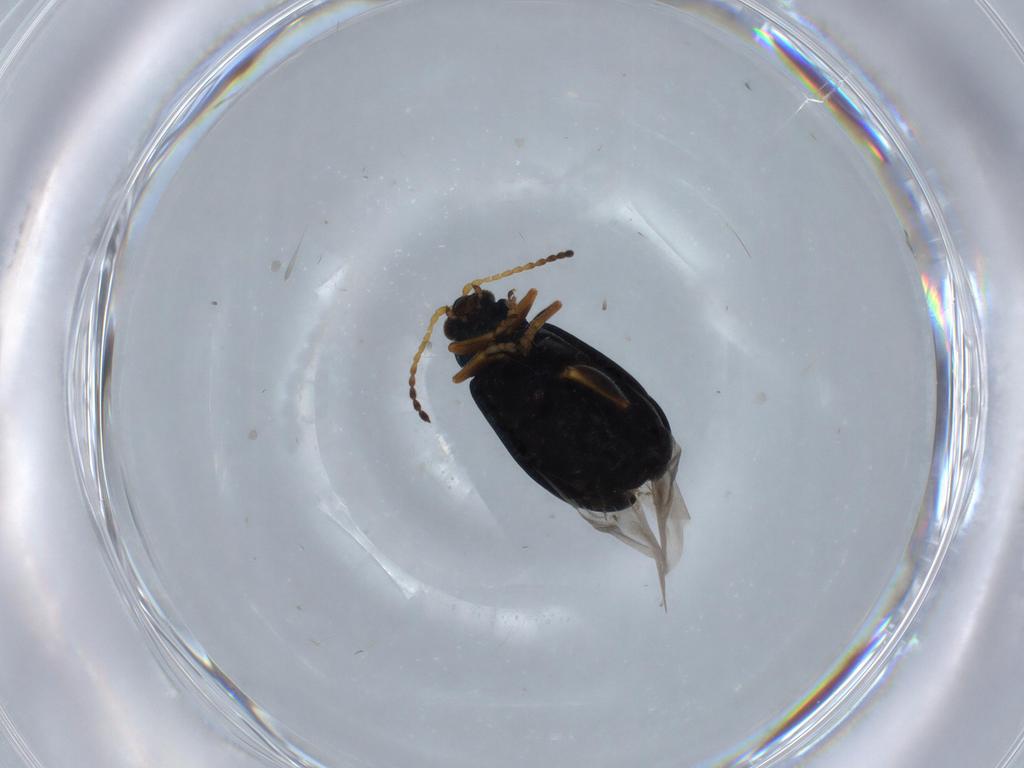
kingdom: Animalia
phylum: Arthropoda
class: Insecta
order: Coleoptera
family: Chrysomelidae
